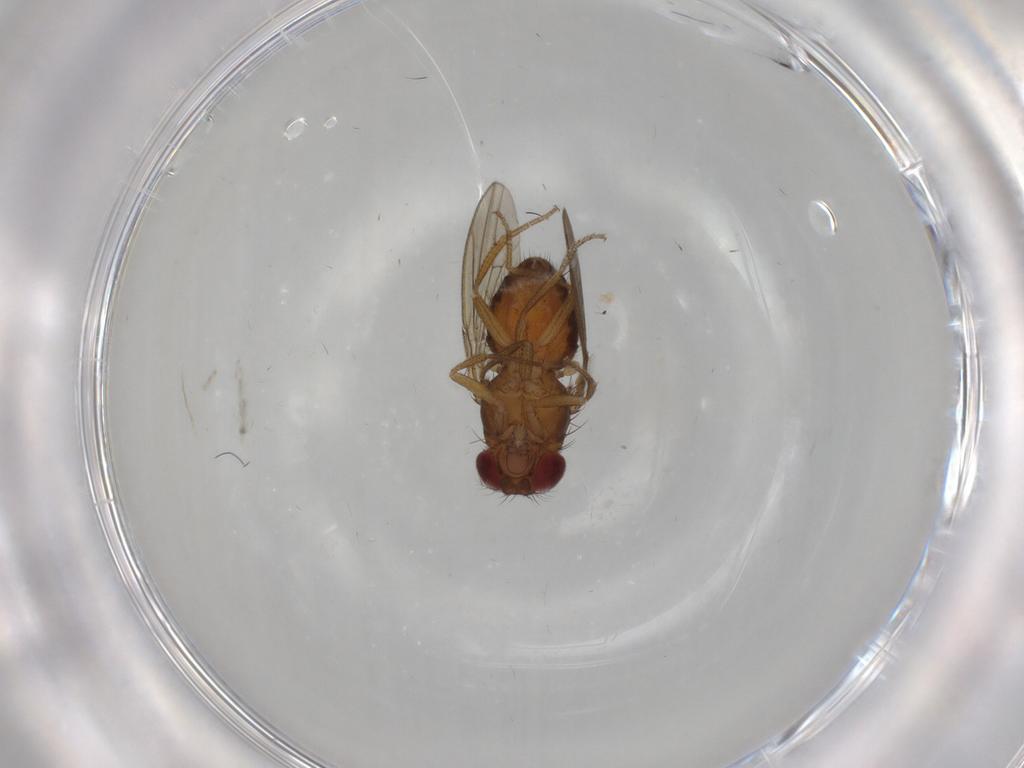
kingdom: Animalia
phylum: Arthropoda
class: Insecta
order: Diptera
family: Drosophilidae
